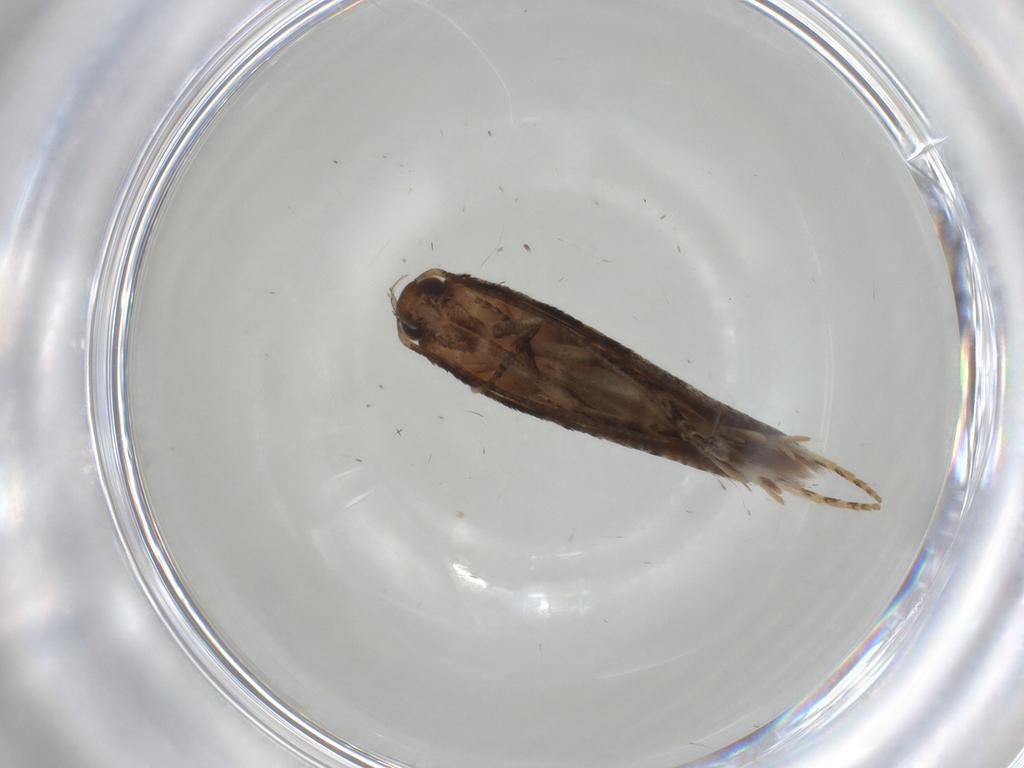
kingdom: Animalia
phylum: Arthropoda
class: Insecta
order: Lepidoptera
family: Gelechiidae
